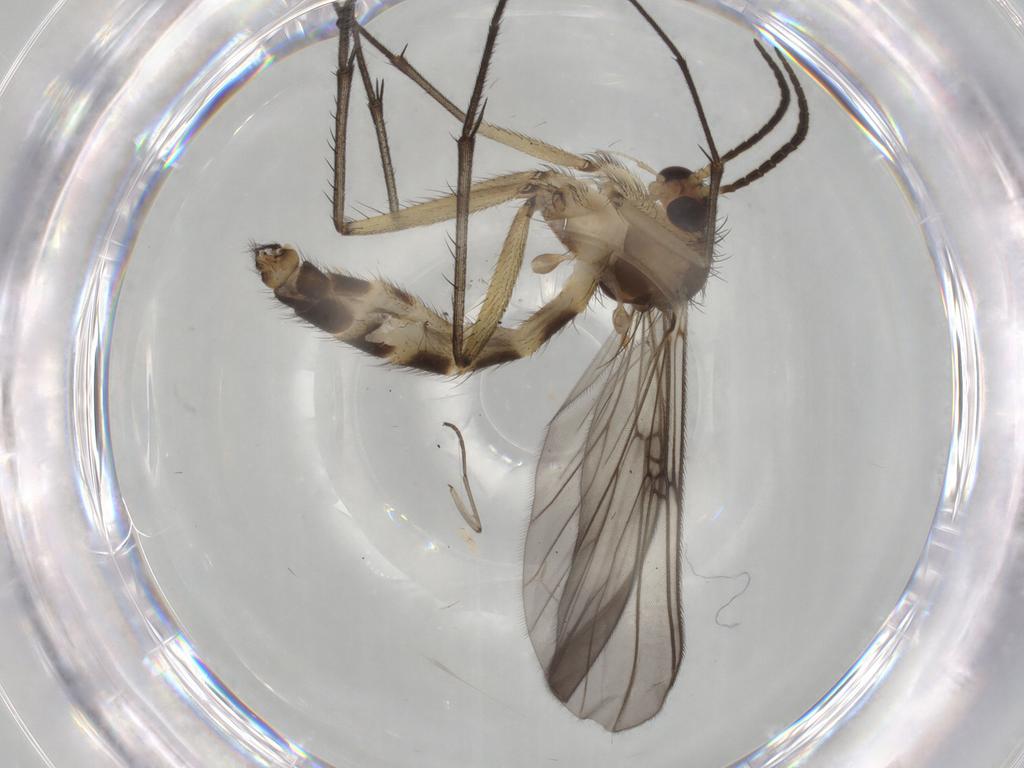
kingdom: Animalia
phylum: Arthropoda
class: Insecta
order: Diptera
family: Mycetophilidae
